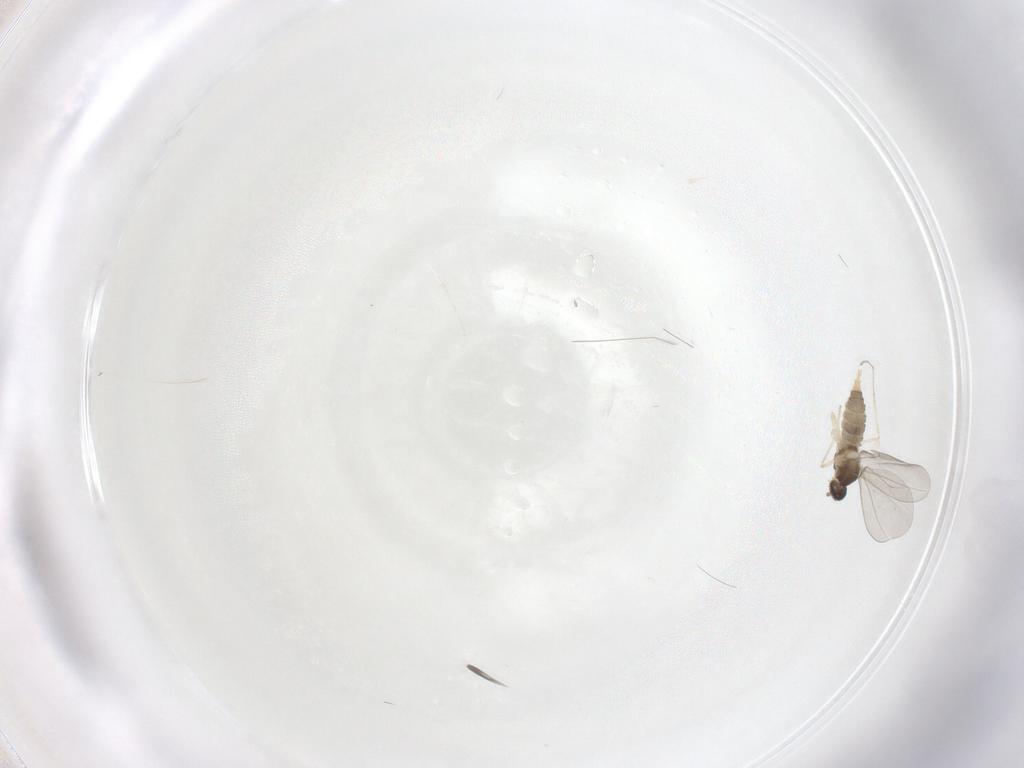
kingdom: Animalia
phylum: Arthropoda
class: Insecta
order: Diptera
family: Cecidomyiidae
